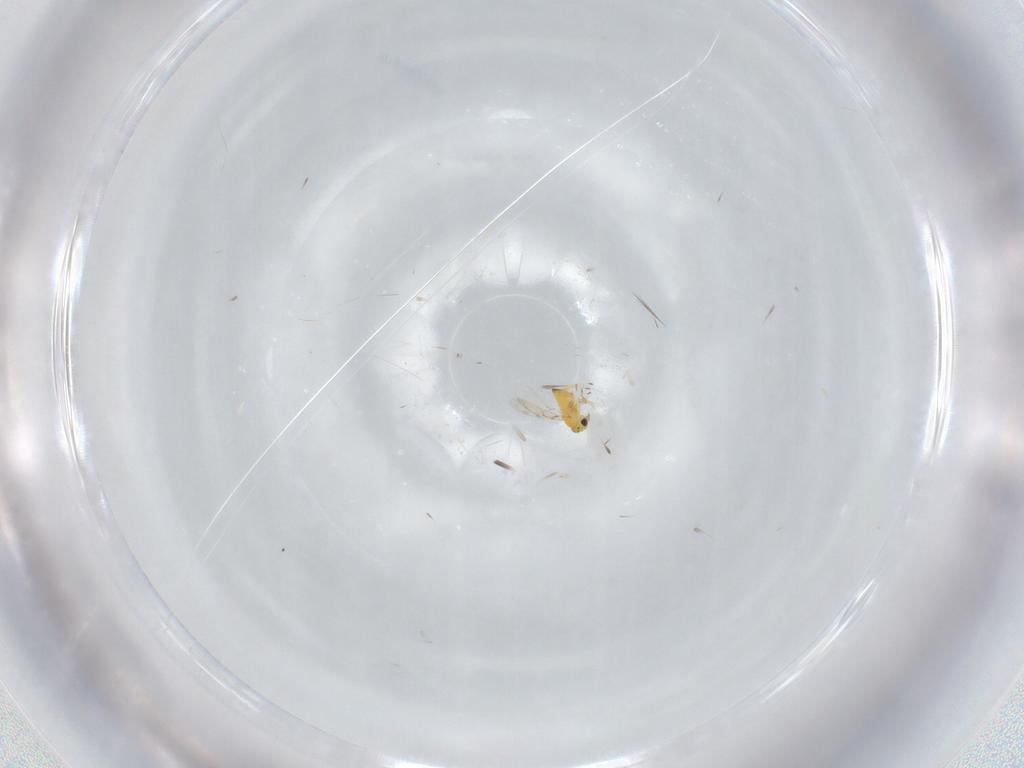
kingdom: Animalia
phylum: Arthropoda
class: Insecta
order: Hymenoptera
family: Trichogrammatidae
